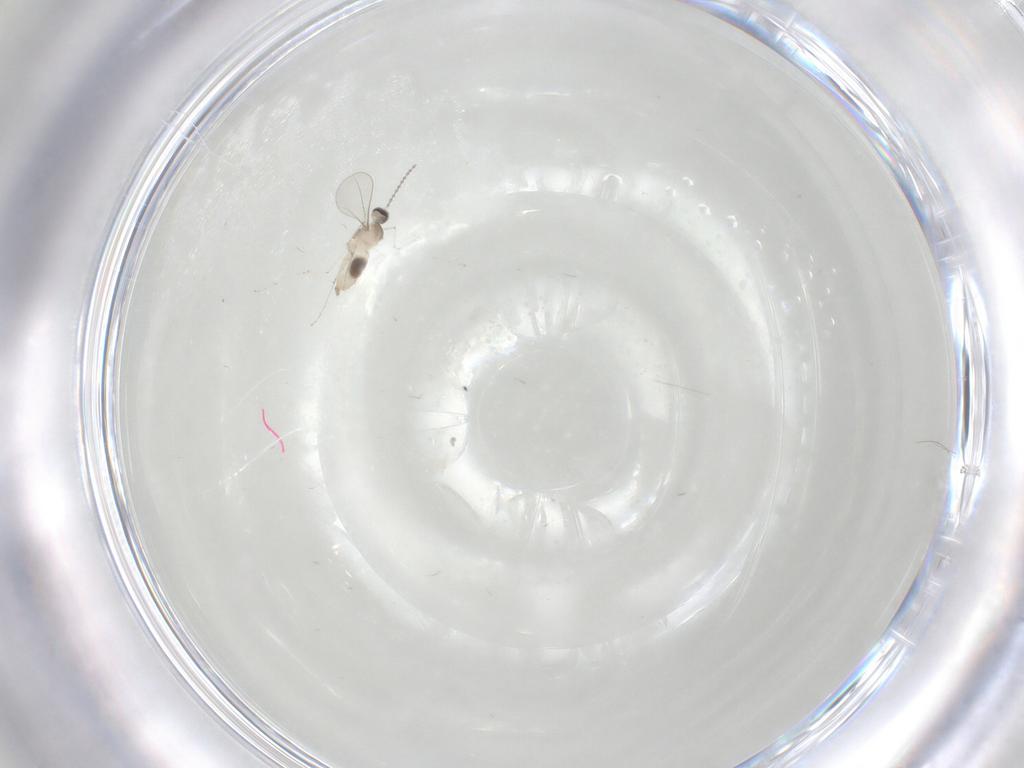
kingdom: Animalia
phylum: Arthropoda
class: Insecta
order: Diptera
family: Cecidomyiidae
